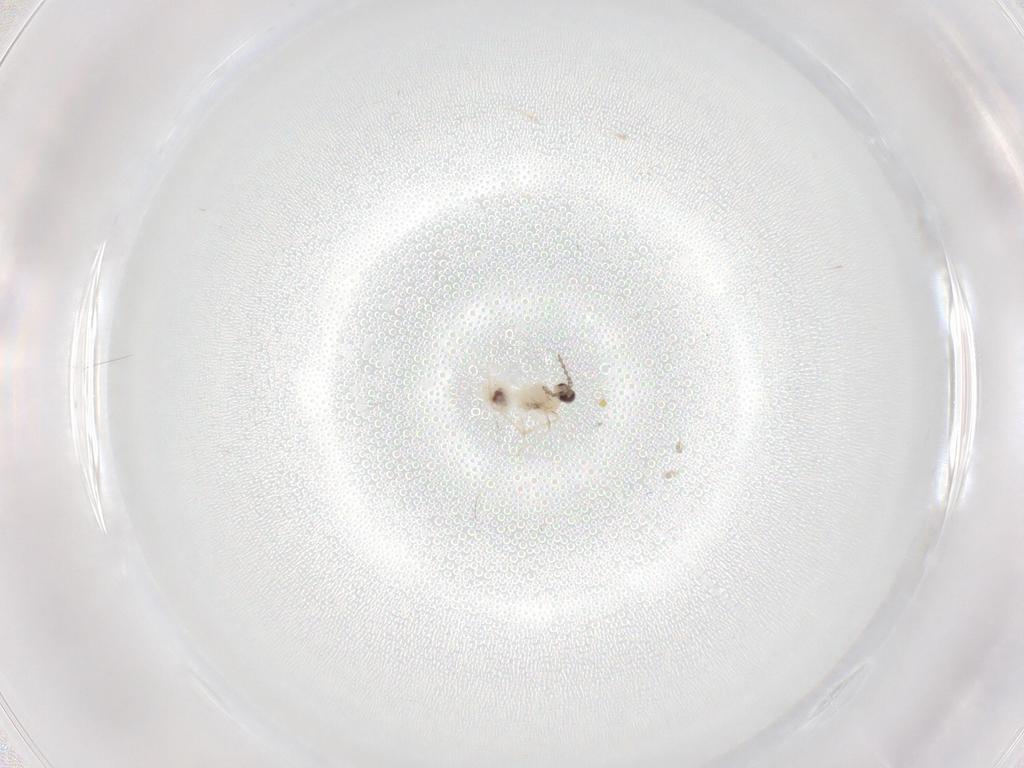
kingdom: Animalia
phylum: Arthropoda
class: Insecta
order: Diptera
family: Cecidomyiidae
